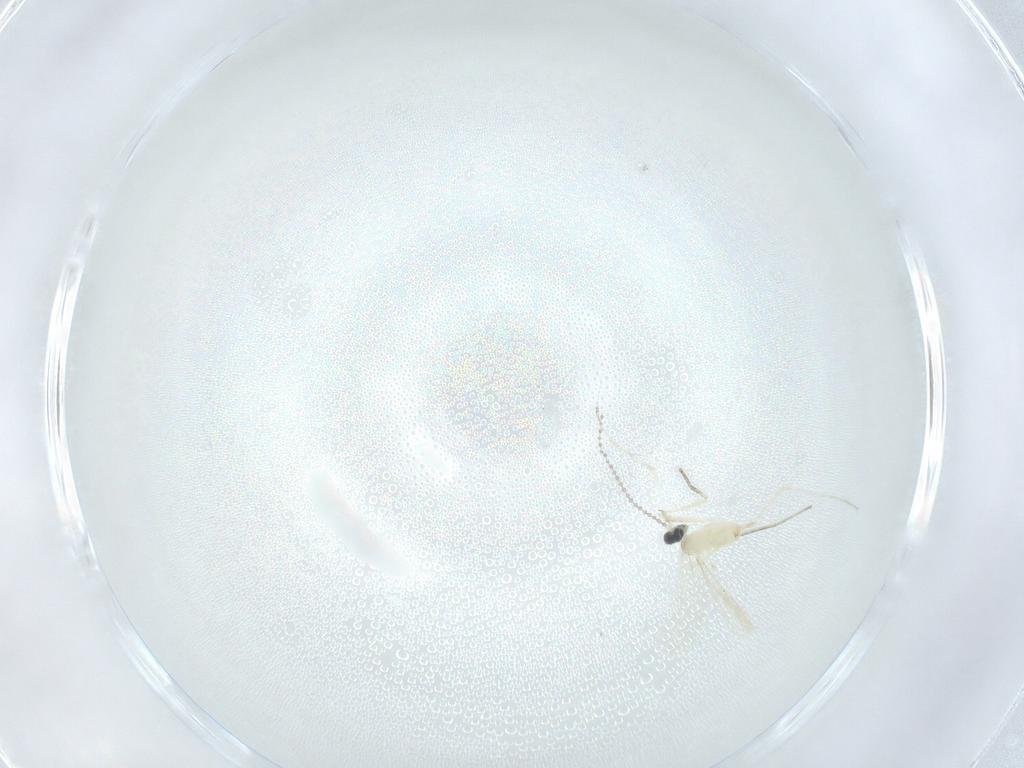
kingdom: Animalia
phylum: Arthropoda
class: Insecta
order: Diptera
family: Cecidomyiidae
